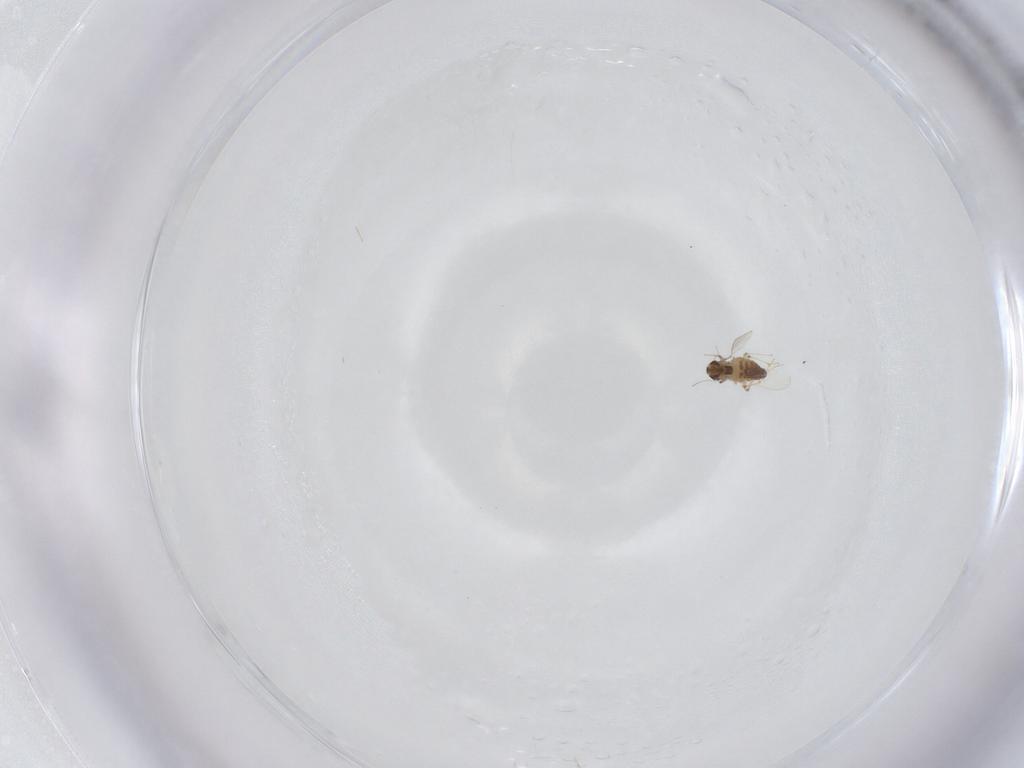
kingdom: Animalia
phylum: Arthropoda
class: Insecta
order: Diptera
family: Chironomidae
